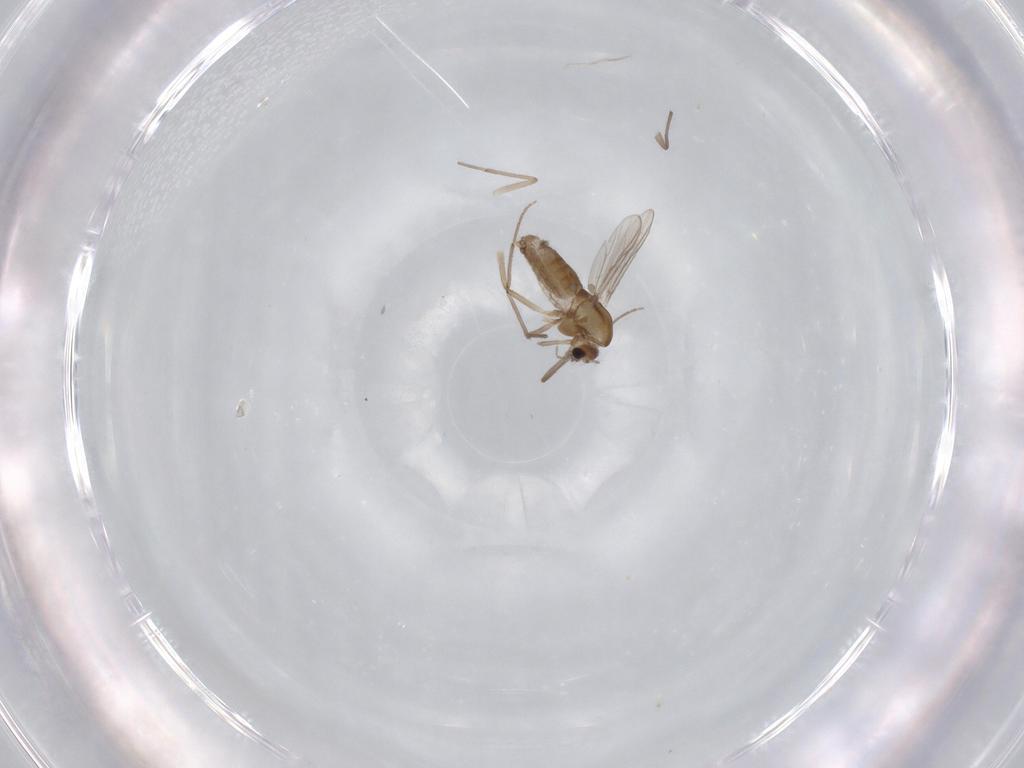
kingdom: Animalia
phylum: Arthropoda
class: Insecta
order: Diptera
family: Chironomidae
